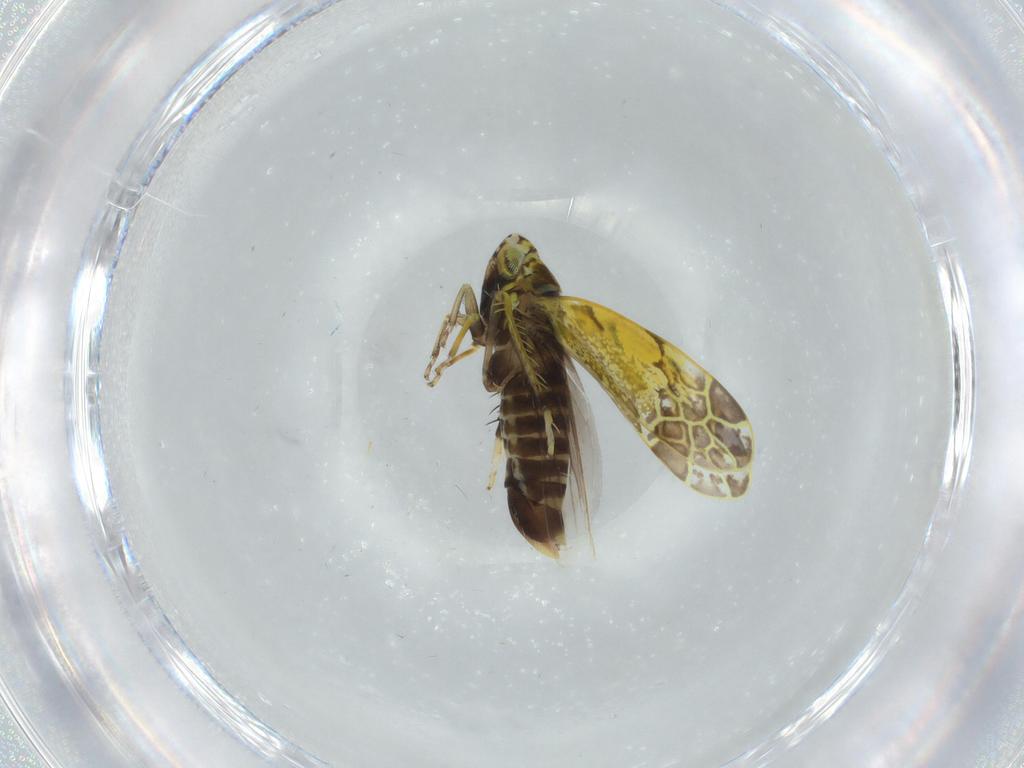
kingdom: Animalia
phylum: Arthropoda
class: Insecta
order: Hemiptera
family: Cicadellidae
